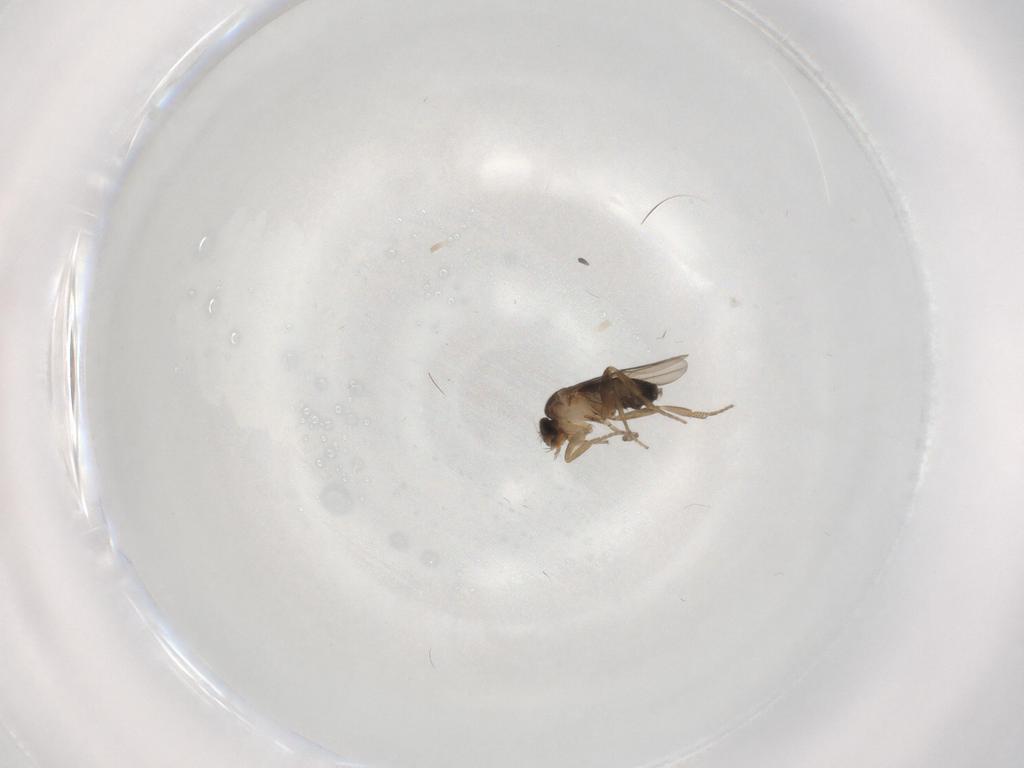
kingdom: Animalia
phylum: Arthropoda
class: Insecta
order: Diptera
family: Phoridae
